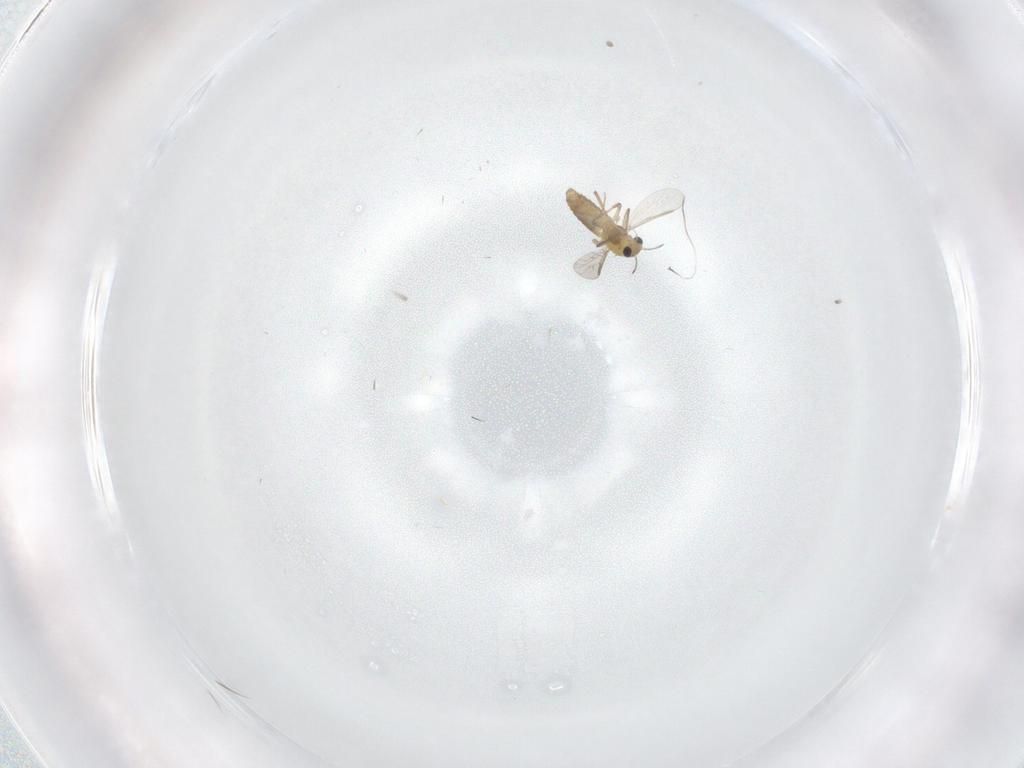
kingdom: Animalia
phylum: Arthropoda
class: Insecta
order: Diptera
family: Chironomidae
